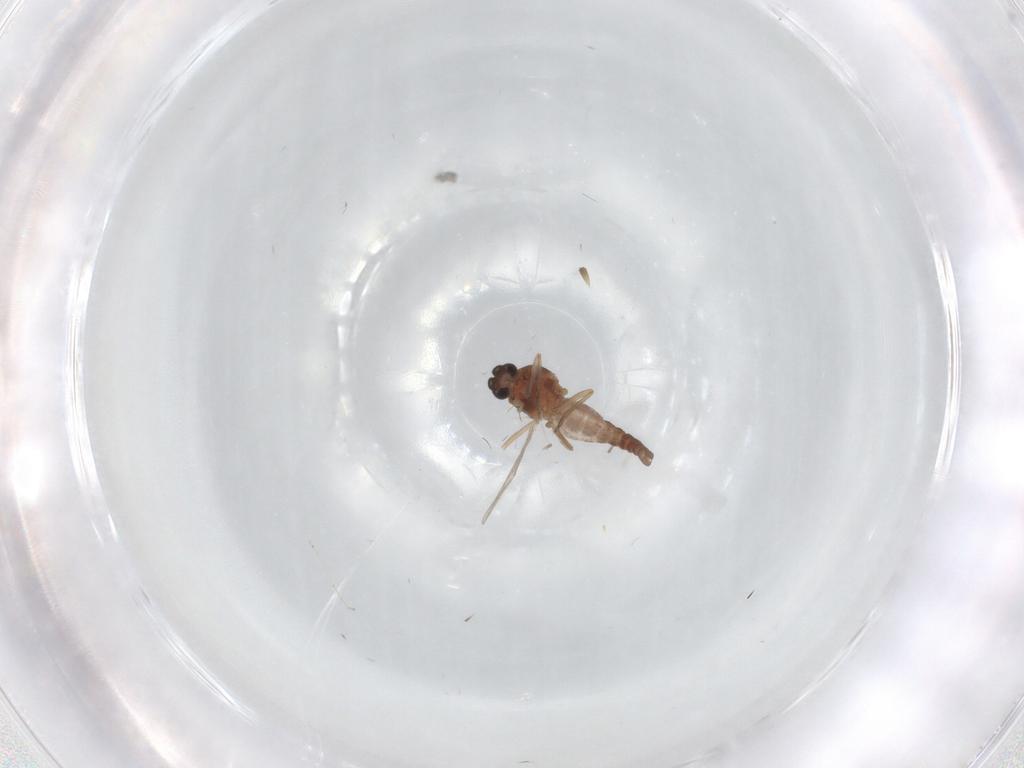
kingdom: Animalia
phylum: Arthropoda
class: Insecta
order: Diptera
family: Ceratopogonidae
